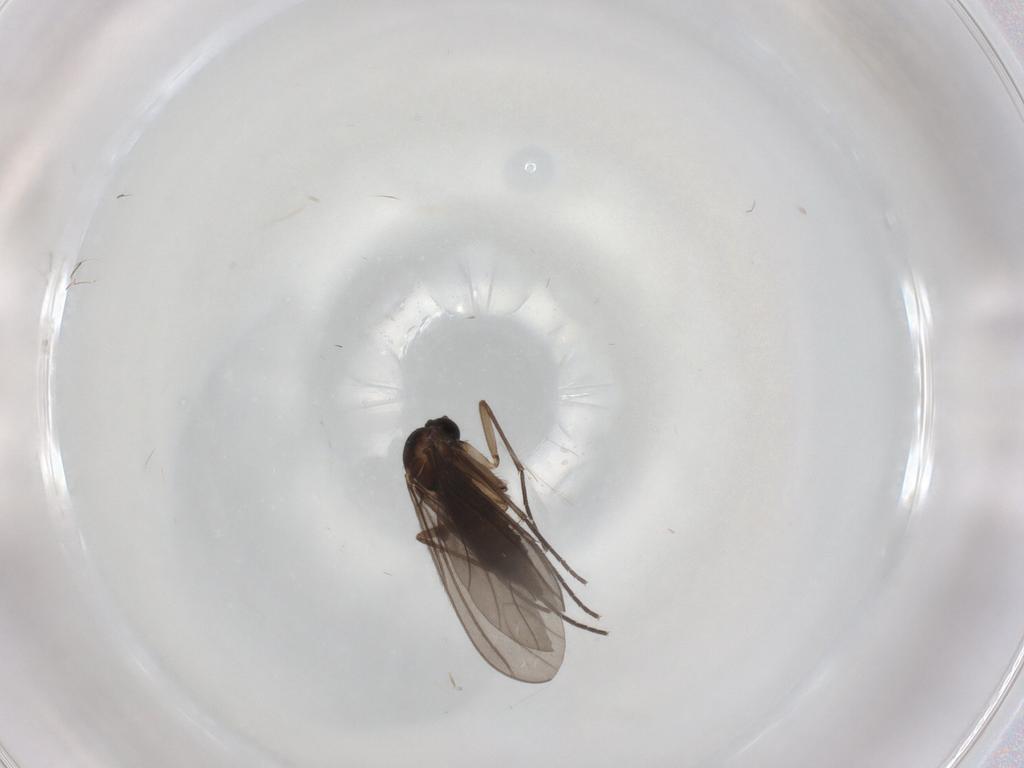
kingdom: Animalia
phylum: Arthropoda
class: Insecta
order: Diptera
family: Sciaridae
